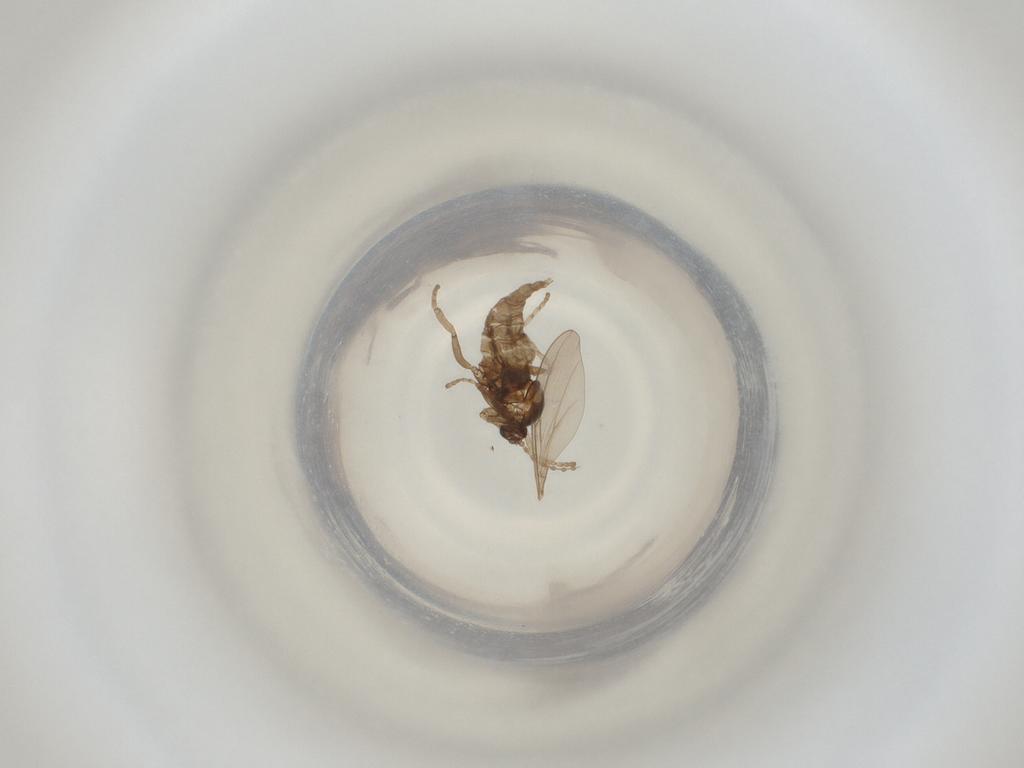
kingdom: Animalia
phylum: Arthropoda
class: Insecta
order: Diptera
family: Cecidomyiidae
